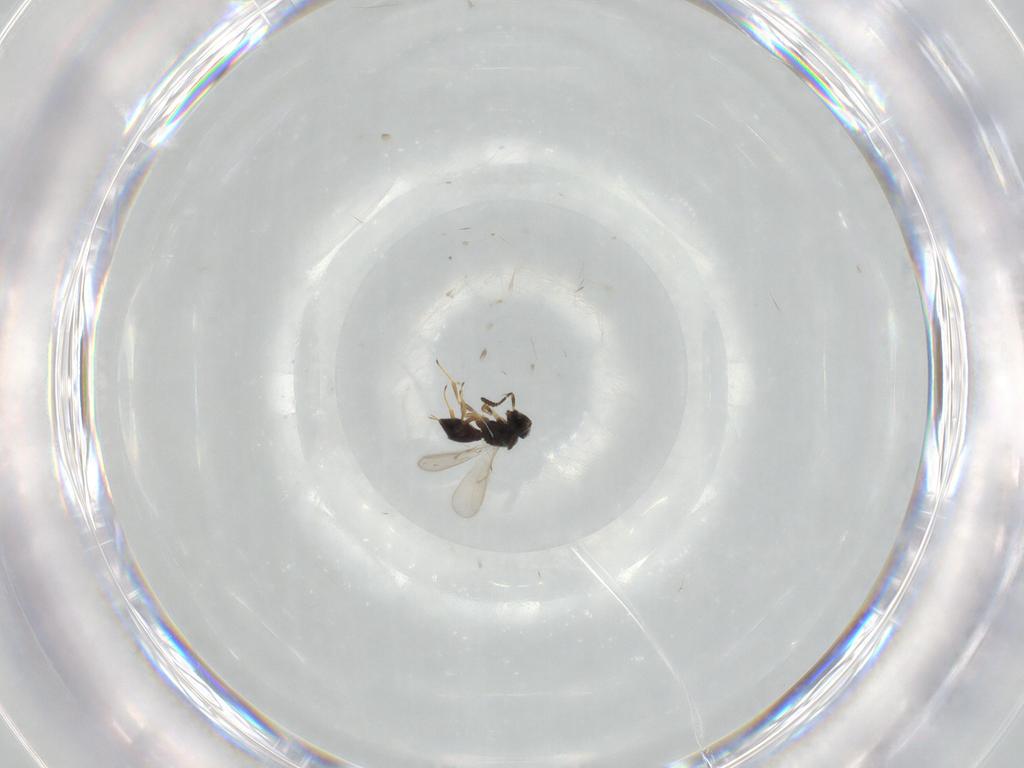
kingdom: Animalia
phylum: Arthropoda
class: Insecta
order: Hymenoptera
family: Scelionidae
